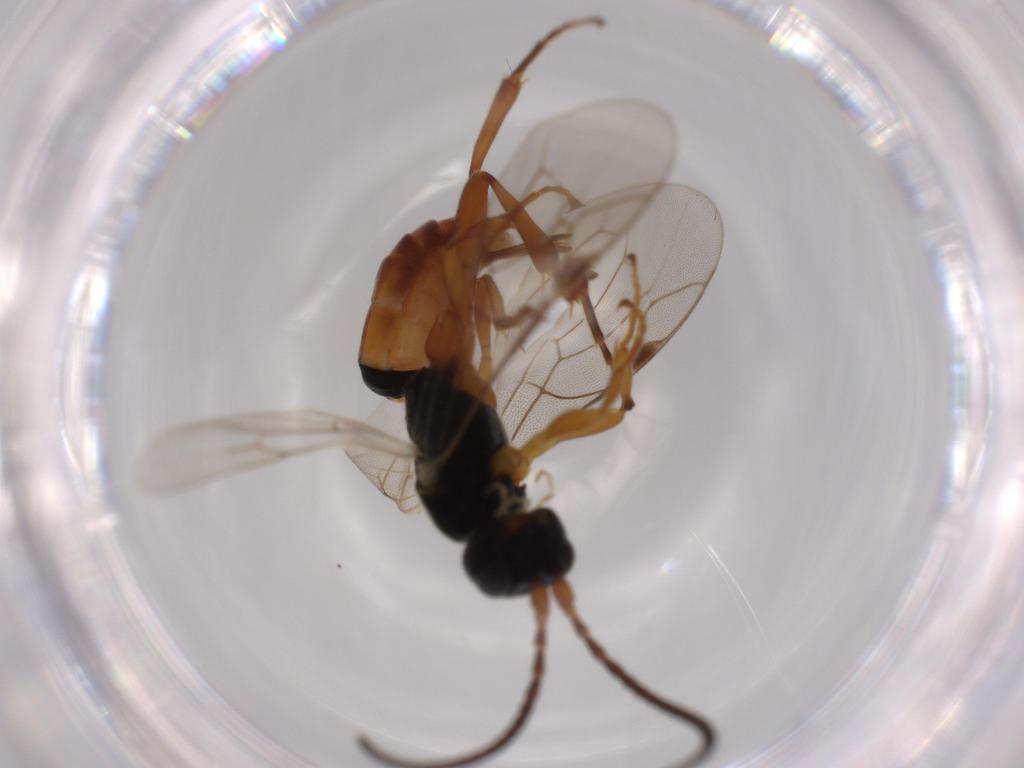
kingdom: Animalia
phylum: Arthropoda
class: Insecta
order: Hymenoptera
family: Ichneumonidae
